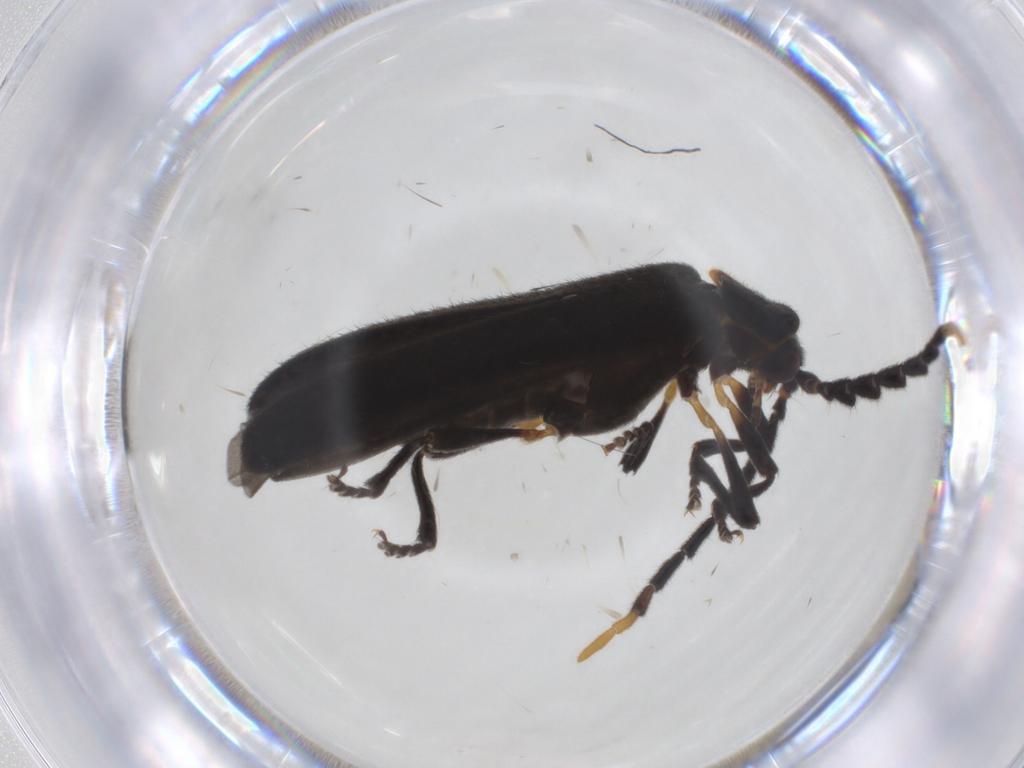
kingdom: Animalia
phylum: Arthropoda
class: Insecta
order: Coleoptera
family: Lycidae
